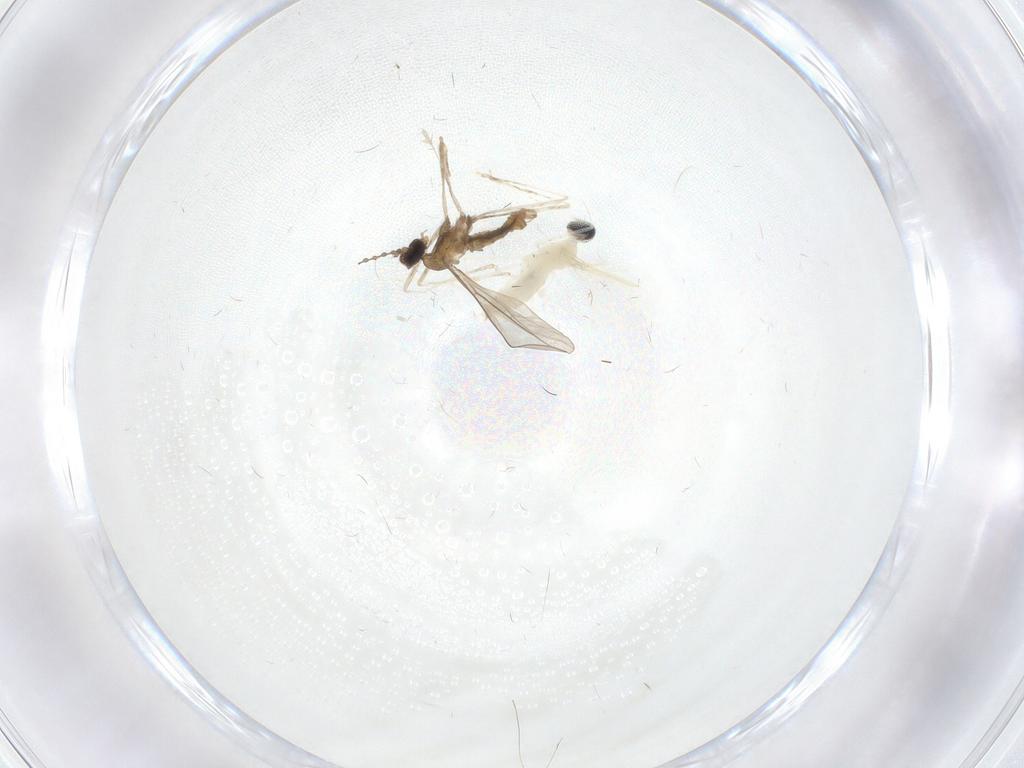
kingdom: Animalia
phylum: Arthropoda
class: Insecta
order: Diptera
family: Cecidomyiidae
